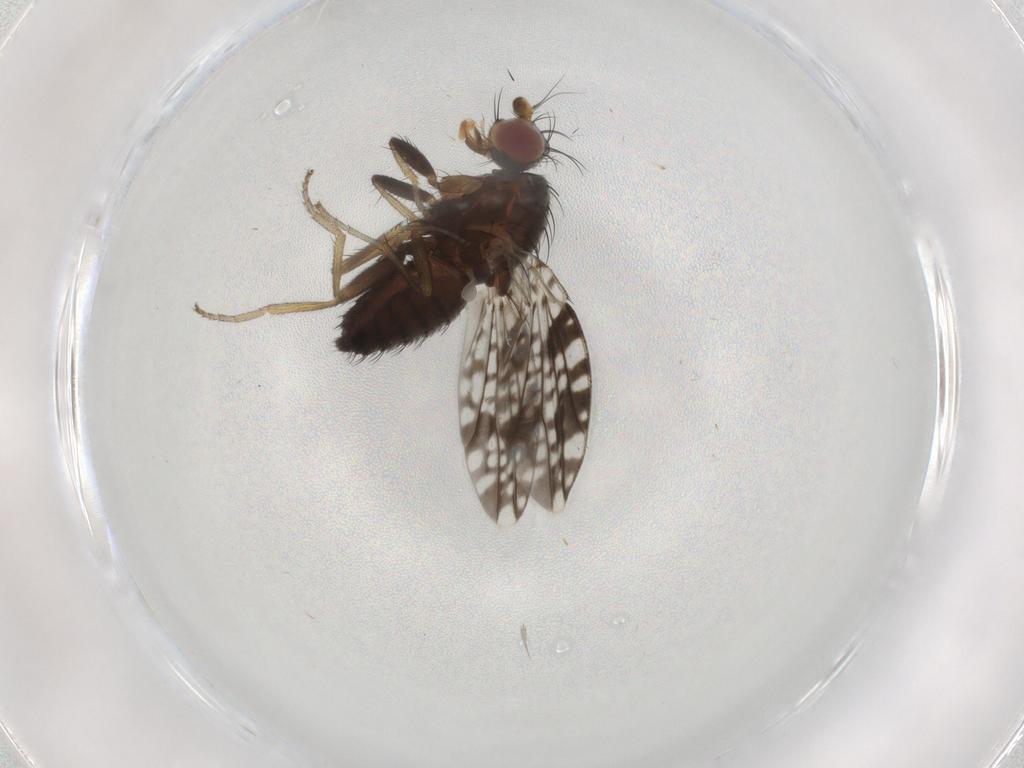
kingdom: Animalia
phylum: Arthropoda
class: Insecta
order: Diptera
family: Tephritidae
